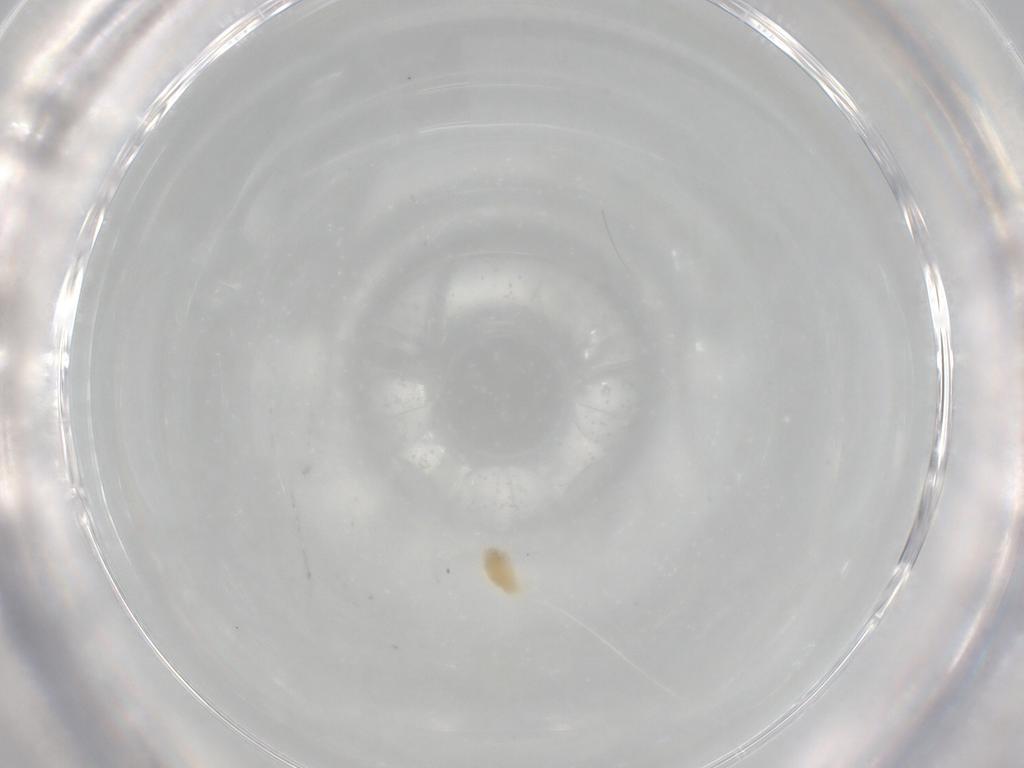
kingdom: Animalia
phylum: Arthropoda
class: Arachnida
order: Trombidiformes
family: Eupodidae
